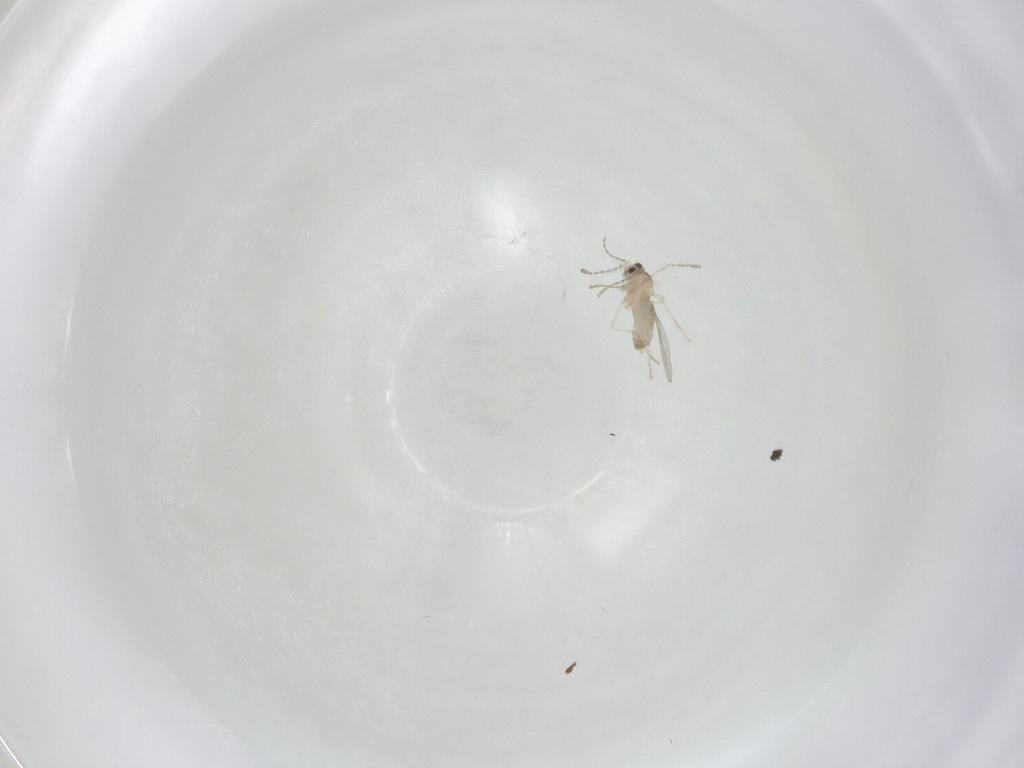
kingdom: Animalia
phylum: Arthropoda
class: Insecta
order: Diptera
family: Cecidomyiidae
